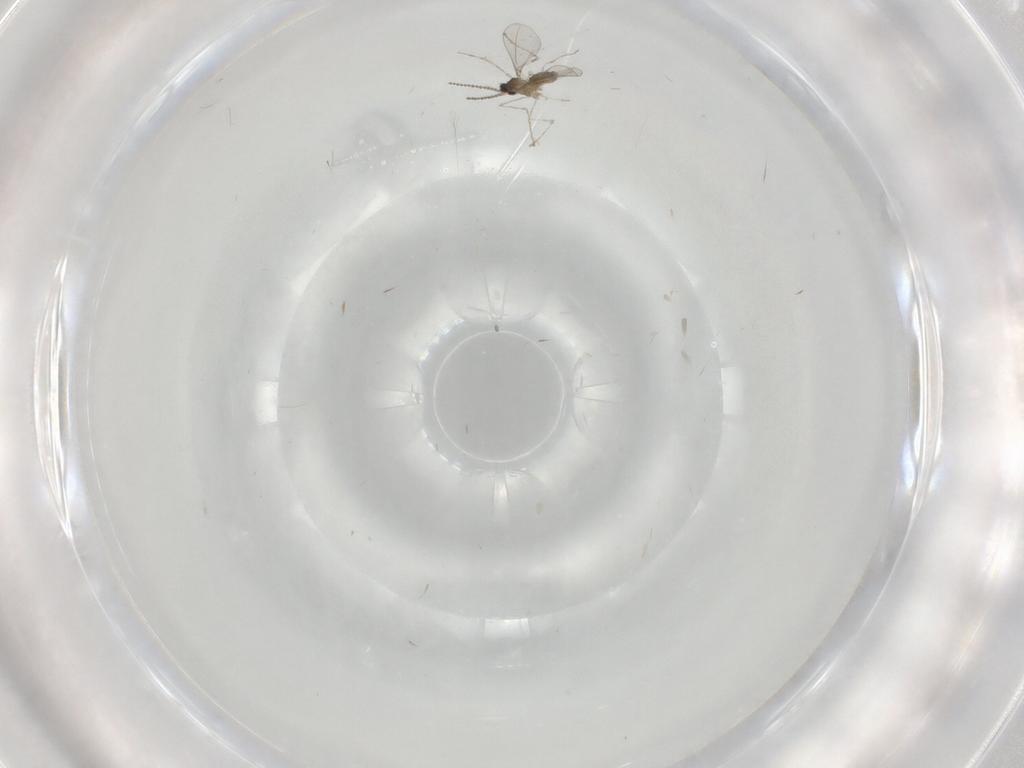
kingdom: Animalia
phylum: Arthropoda
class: Insecta
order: Diptera
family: Cecidomyiidae
